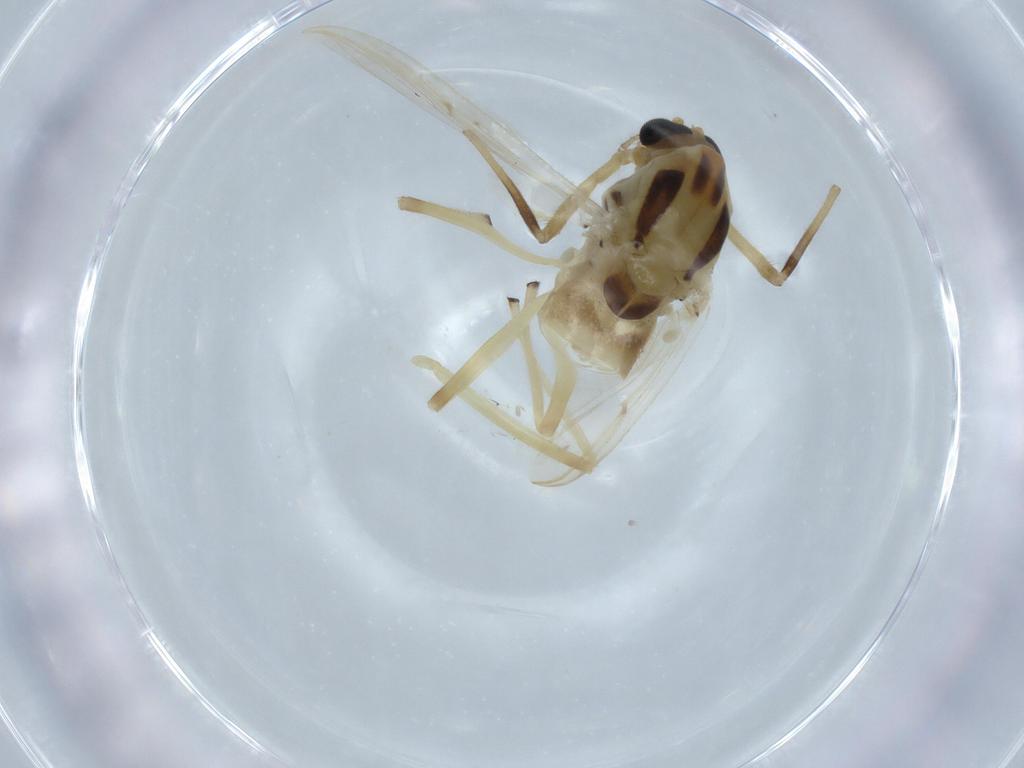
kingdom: Animalia
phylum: Arthropoda
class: Insecta
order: Diptera
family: Chironomidae
